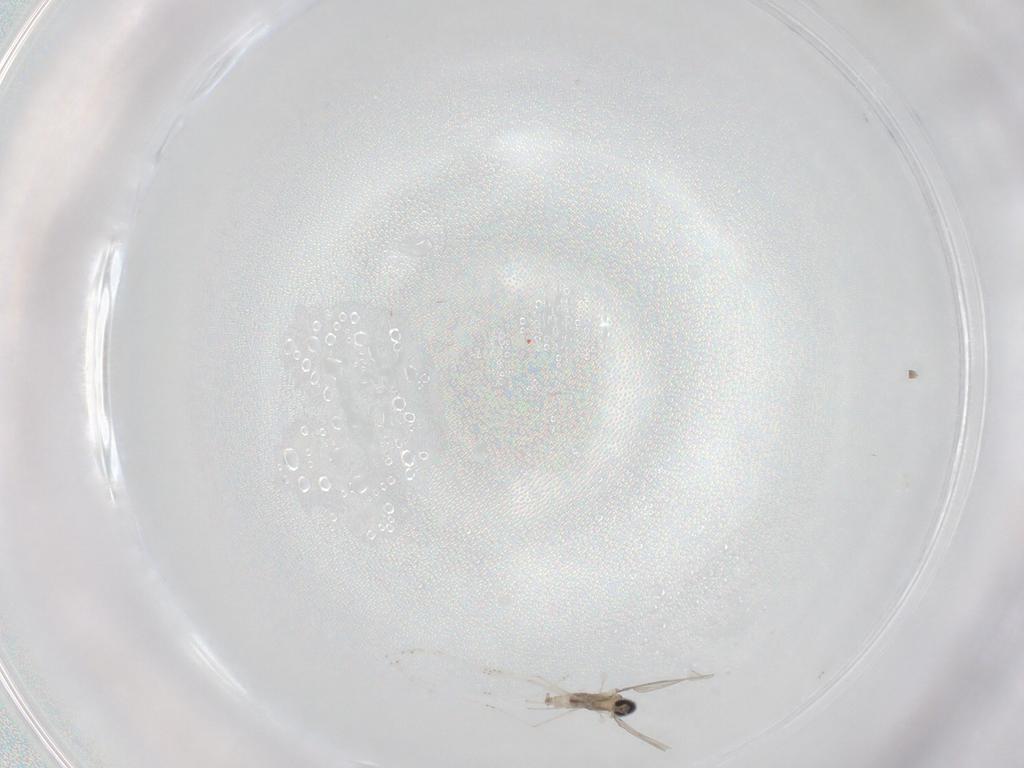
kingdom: Animalia
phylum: Arthropoda
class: Insecta
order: Diptera
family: Cecidomyiidae
